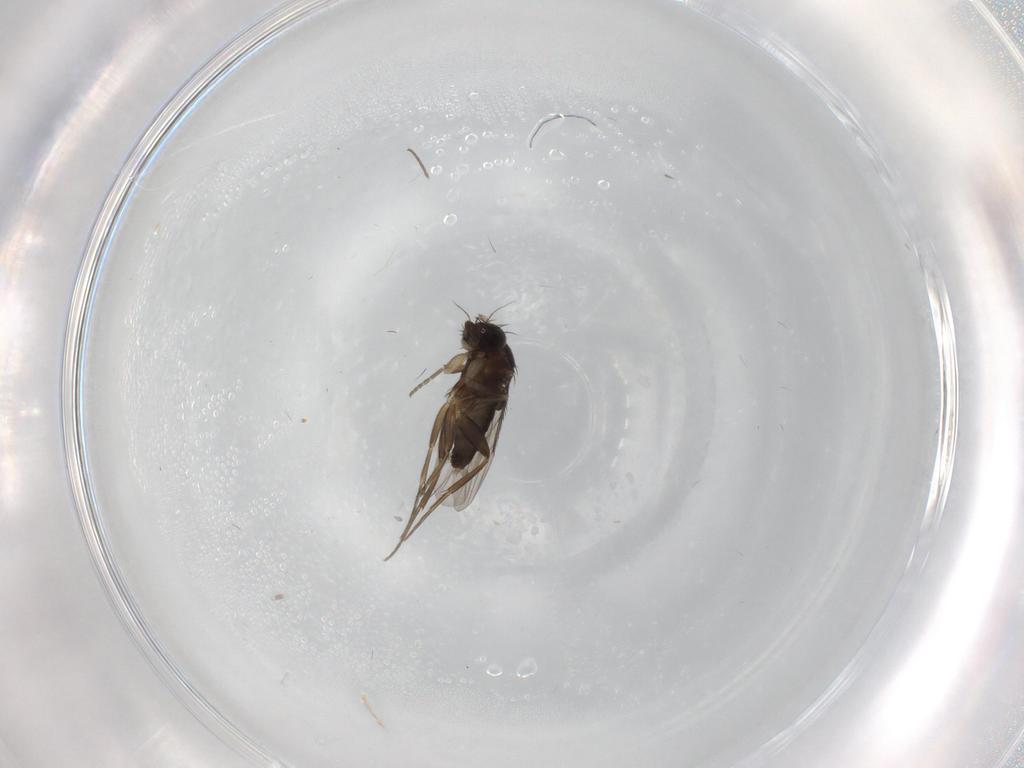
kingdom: Animalia
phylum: Arthropoda
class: Insecta
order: Diptera
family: Phoridae
